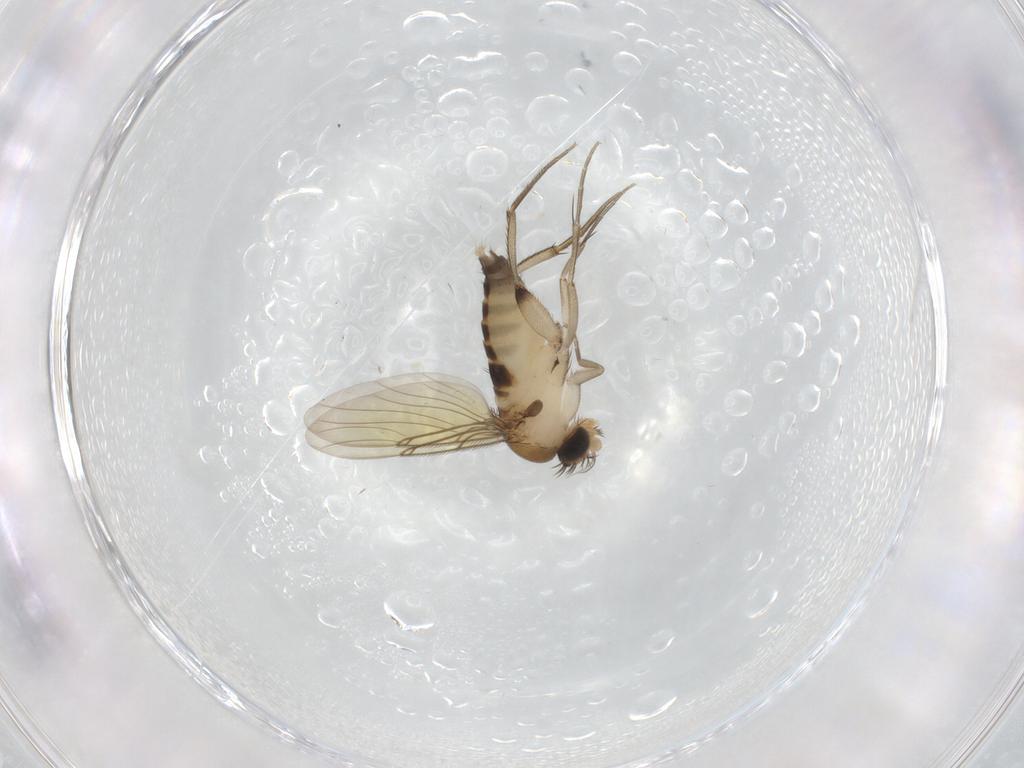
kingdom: Animalia
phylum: Arthropoda
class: Insecta
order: Diptera
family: Phoridae
